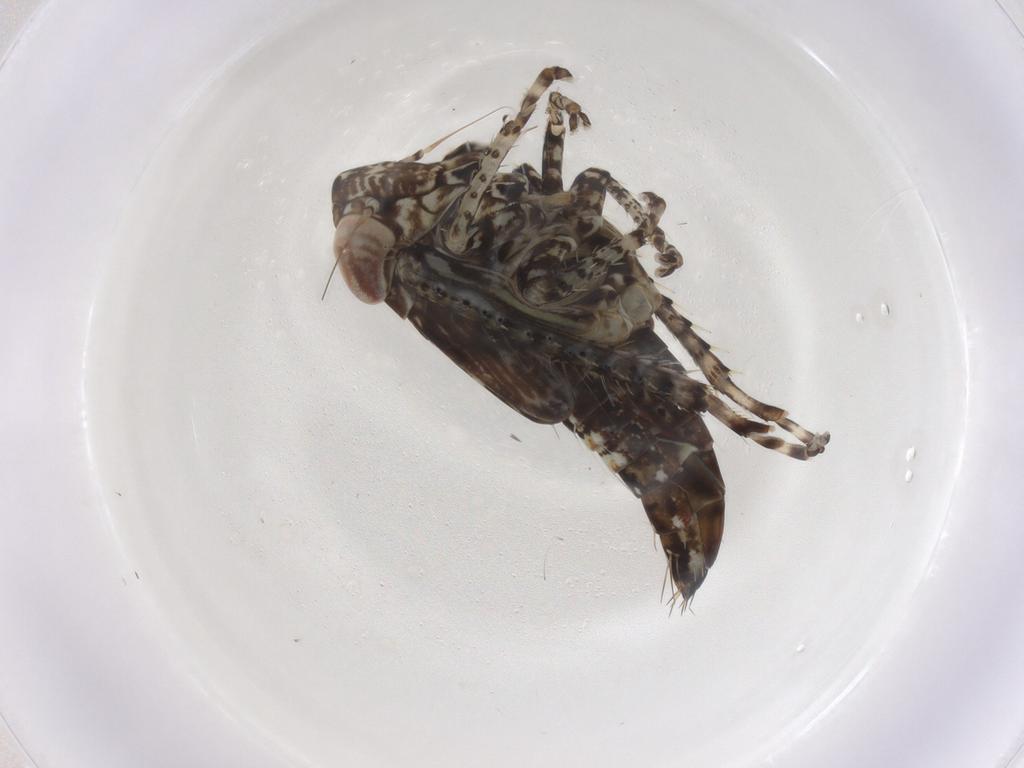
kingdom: Animalia
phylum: Arthropoda
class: Insecta
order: Hemiptera
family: Cicadellidae
